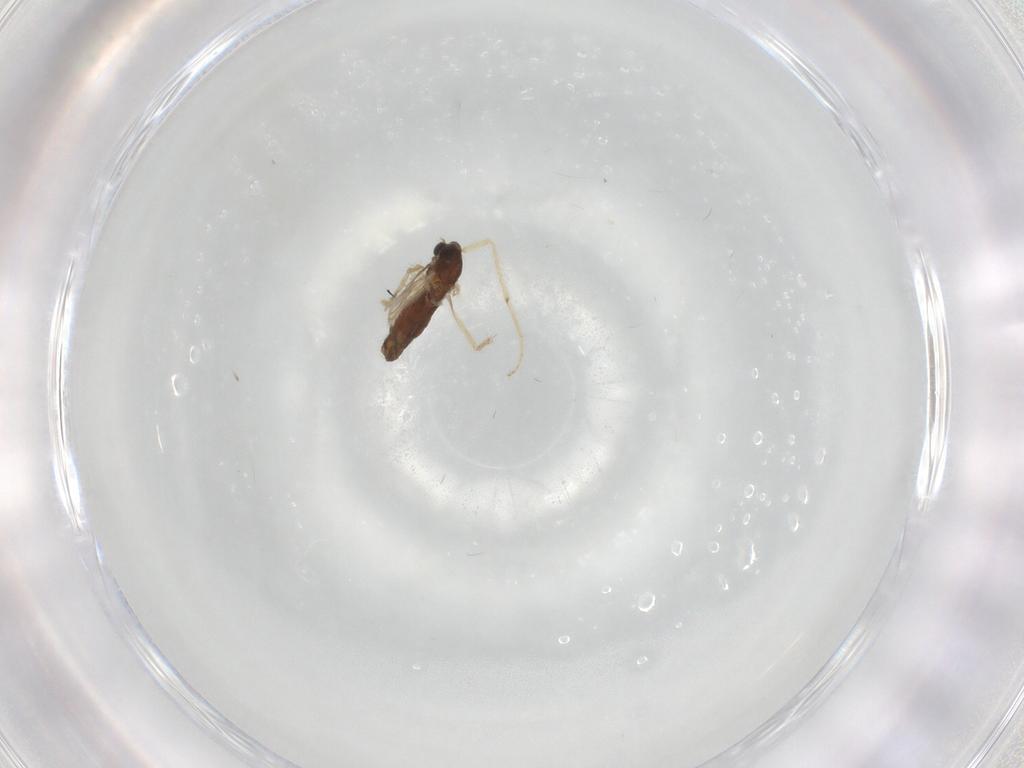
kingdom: Animalia
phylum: Arthropoda
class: Insecta
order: Diptera
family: Chironomidae
